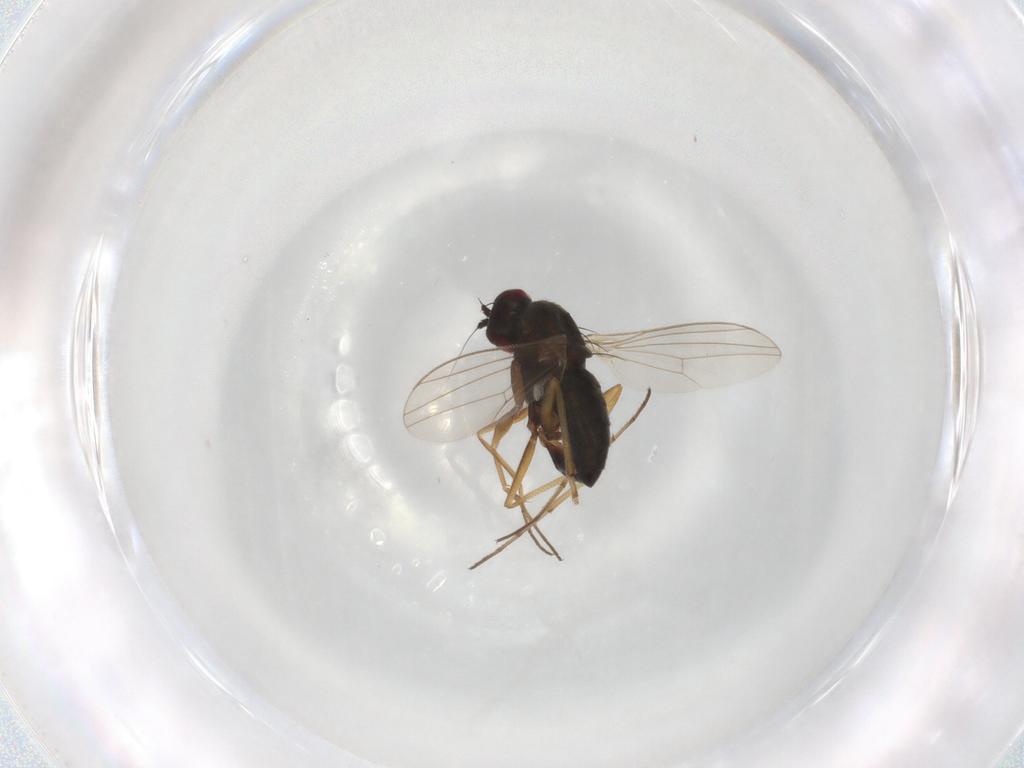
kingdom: Animalia
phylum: Arthropoda
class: Insecta
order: Diptera
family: Dolichopodidae
